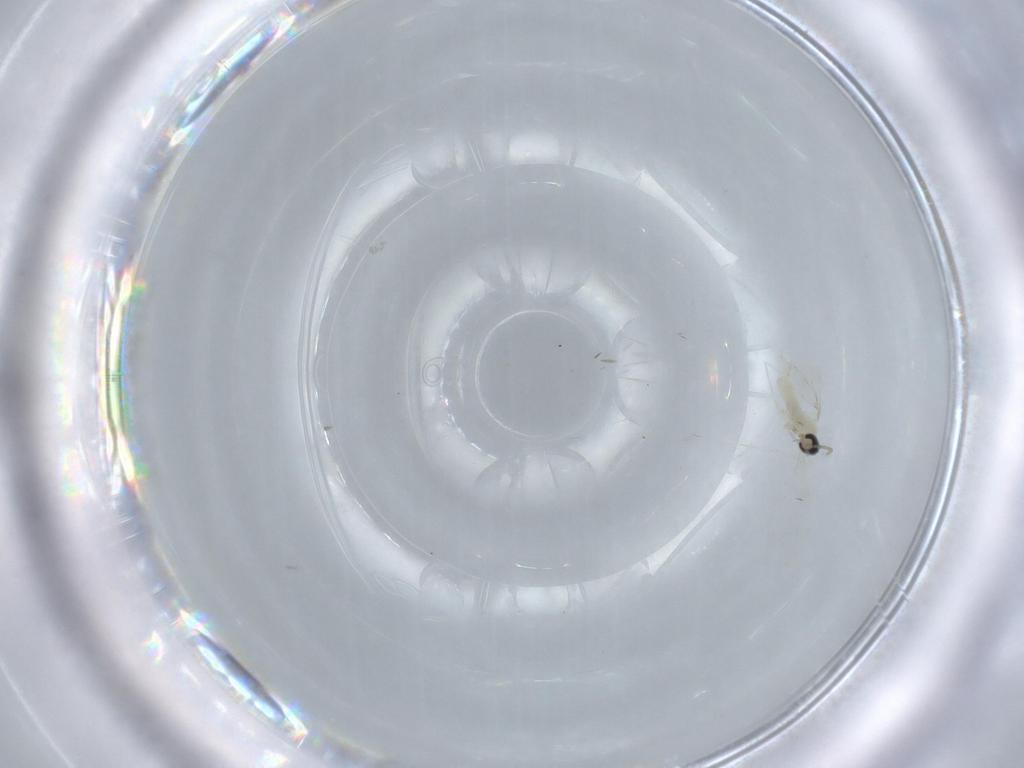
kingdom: Animalia
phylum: Arthropoda
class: Insecta
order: Diptera
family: Cecidomyiidae
